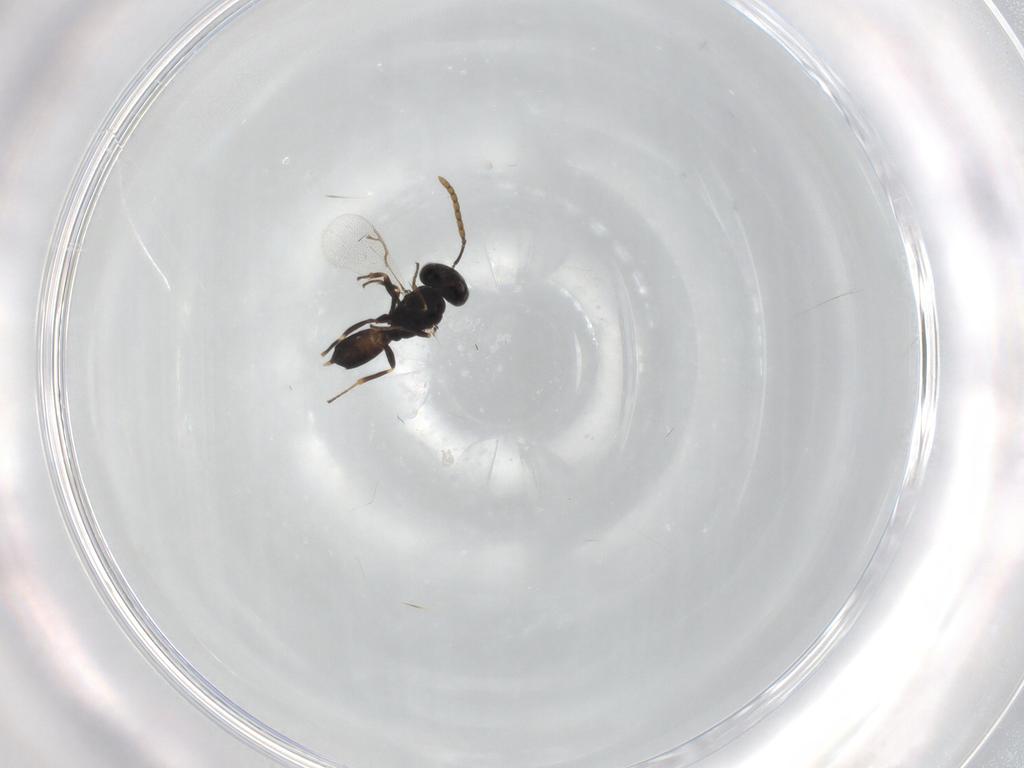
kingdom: Animalia
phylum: Arthropoda
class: Insecta
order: Hymenoptera
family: Pteromalidae
